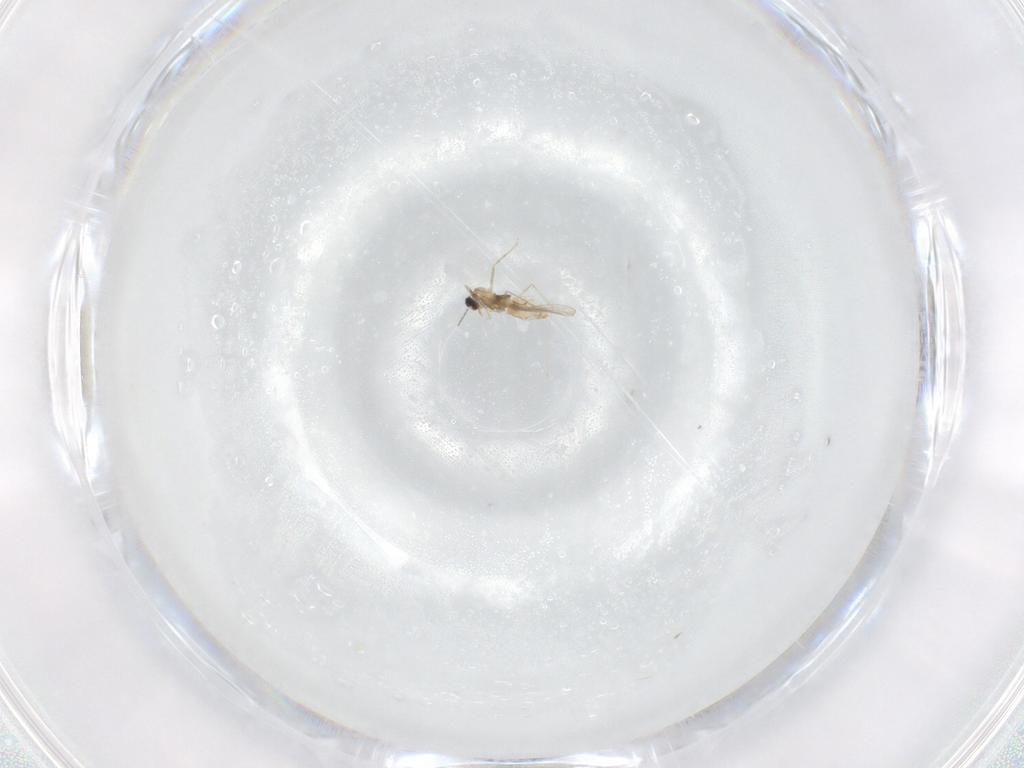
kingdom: Animalia
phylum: Arthropoda
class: Insecta
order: Diptera
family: Cecidomyiidae
